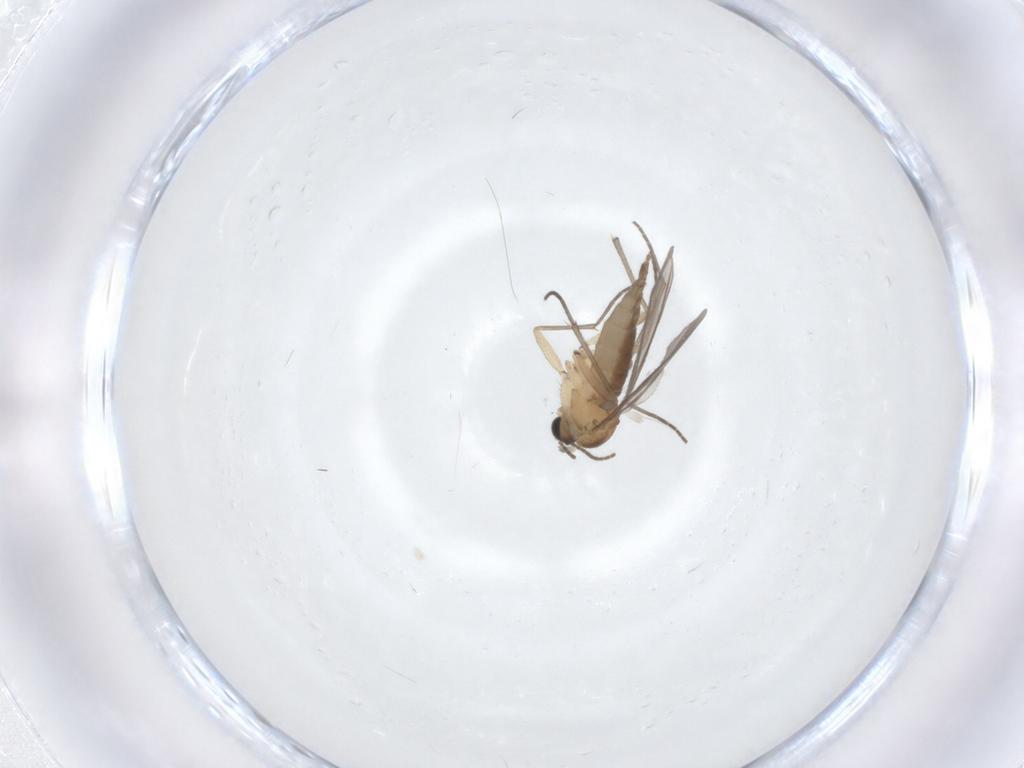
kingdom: Animalia
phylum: Arthropoda
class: Insecta
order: Diptera
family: Sciaridae
